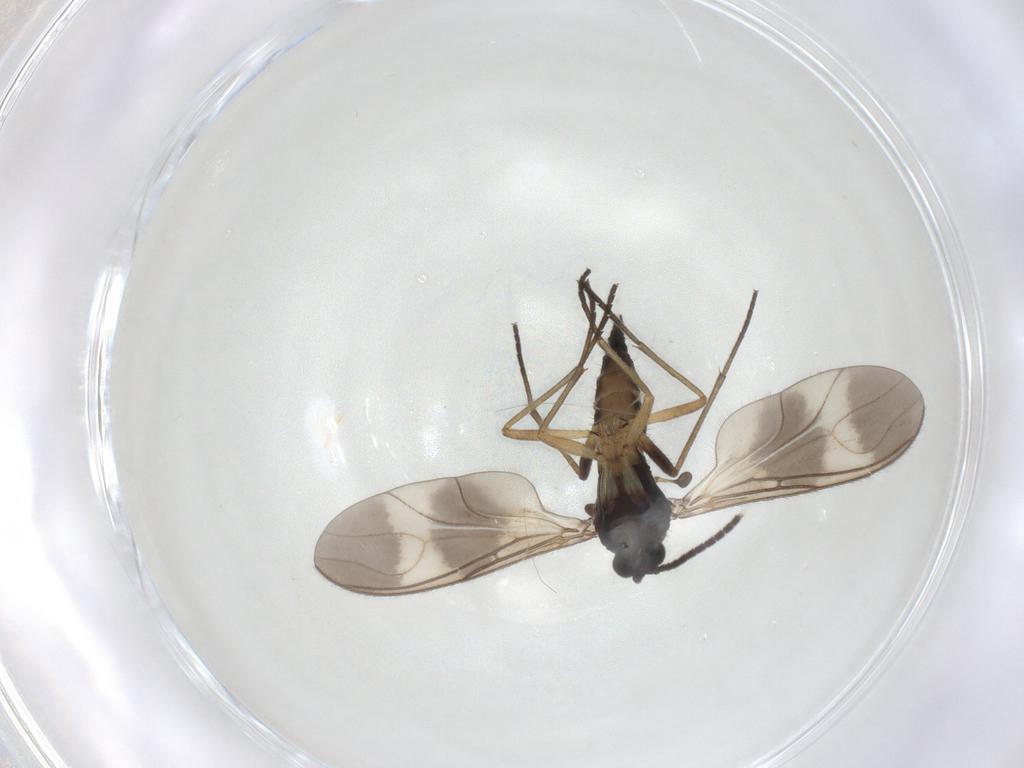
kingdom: Animalia
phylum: Arthropoda
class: Insecta
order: Diptera
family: Sciaridae
